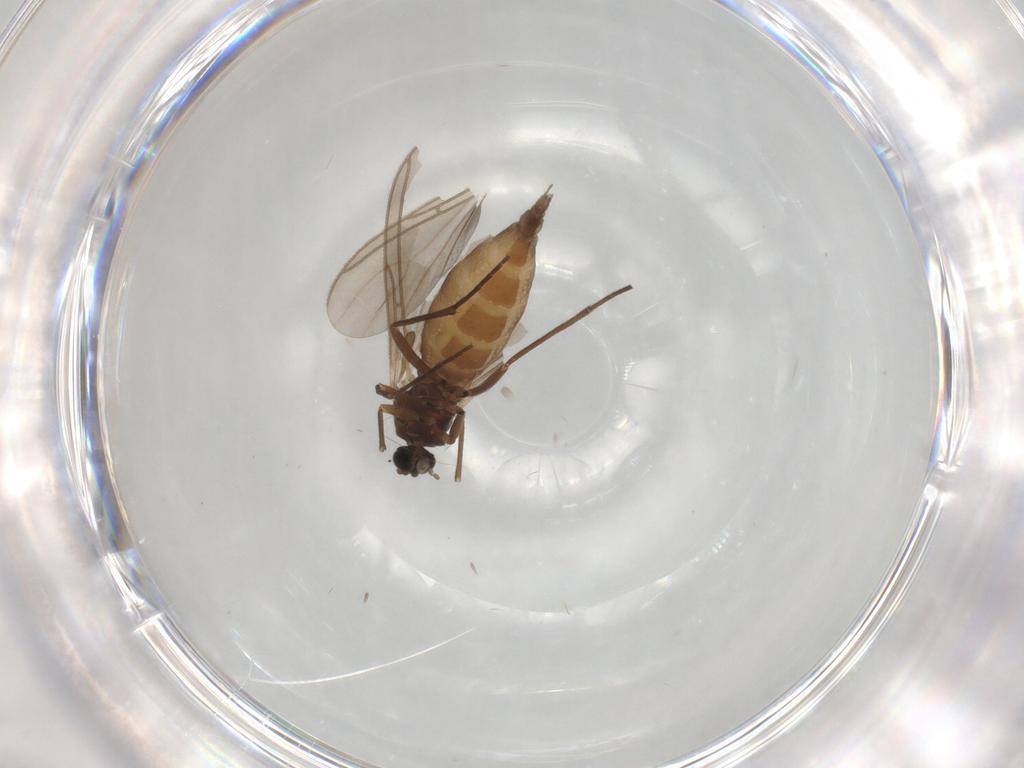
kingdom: Animalia
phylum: Arthropoda
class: Insecta
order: Diptera
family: Sciaridae
